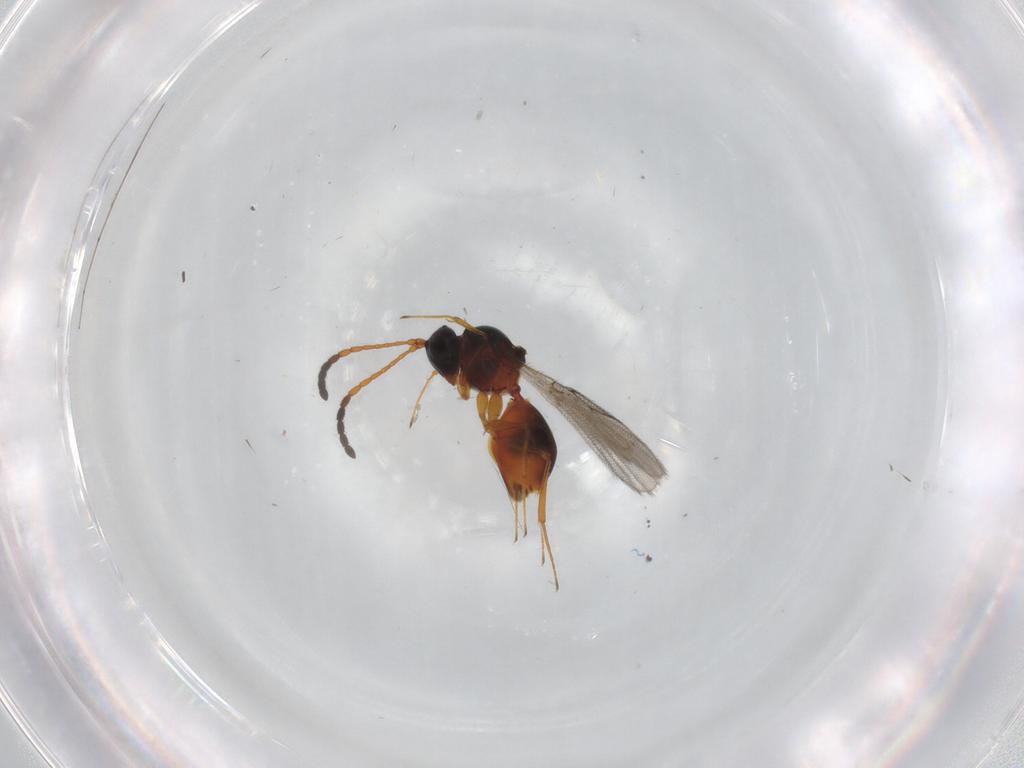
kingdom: Animalia
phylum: Arthropoda
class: Insecta
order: Hymenoptera
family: Figitidae
